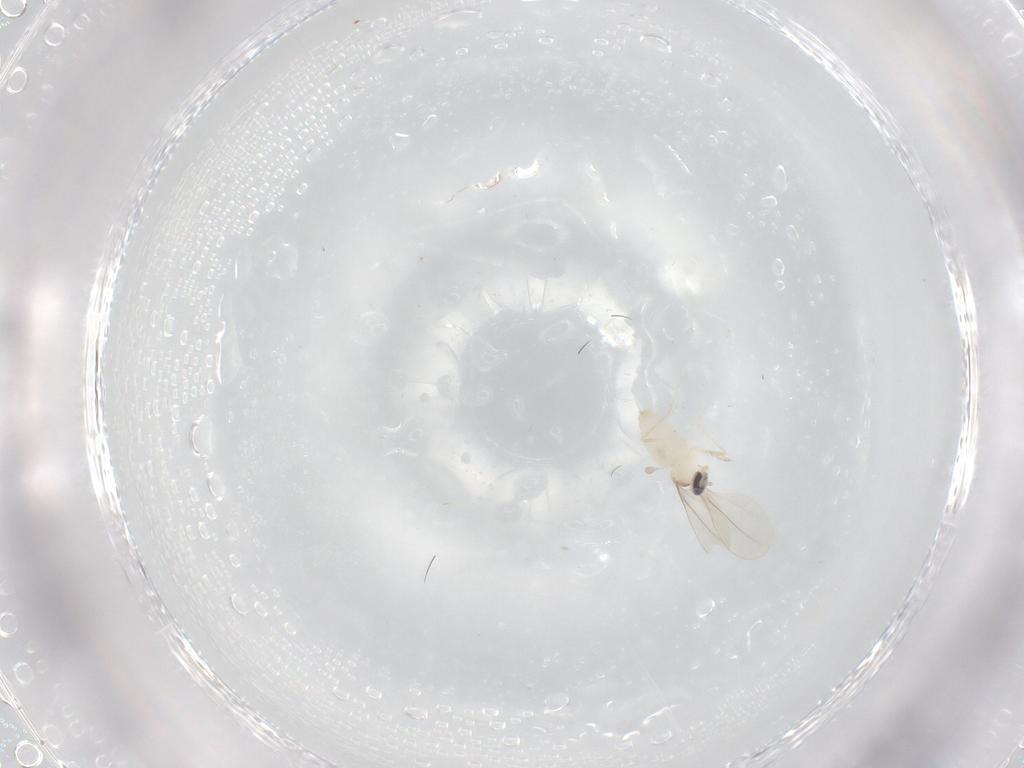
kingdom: Animalia
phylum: Arthropoda
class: Insecta
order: Diptera
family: Cecidomyiidae
